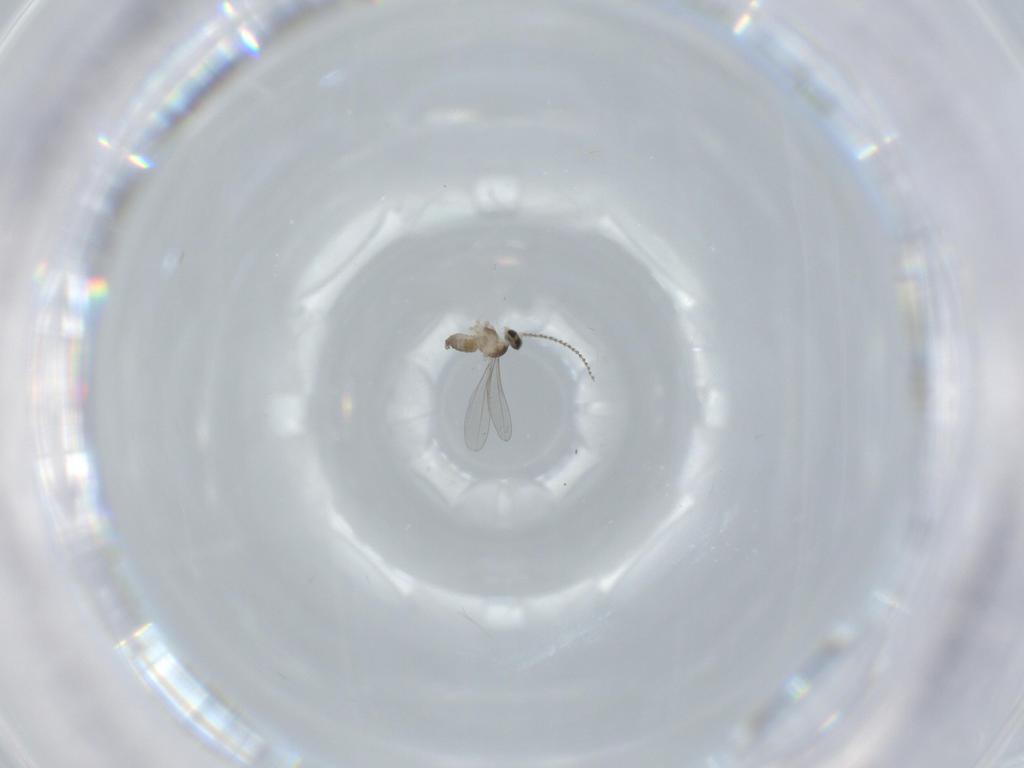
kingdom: Animalia
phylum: Arthropoda
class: Insecta
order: Diptera
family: Cecidomyiidae
